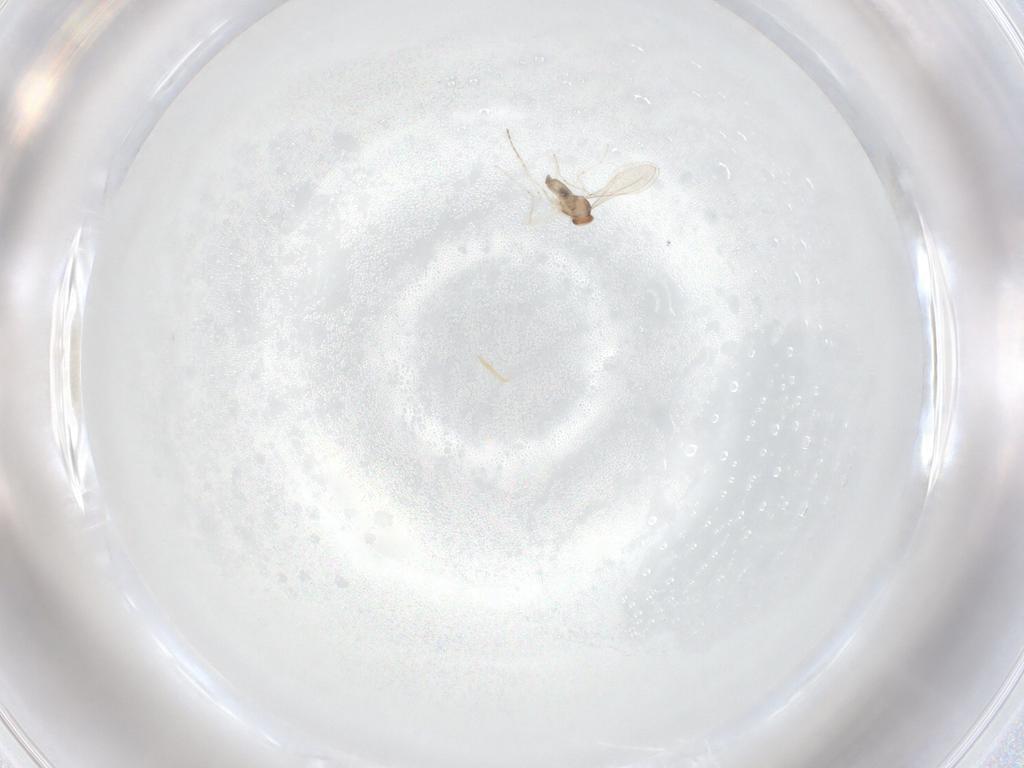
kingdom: Animalia
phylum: Arthropoda
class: Insecta
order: Diptera
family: Cecidomyiidae
